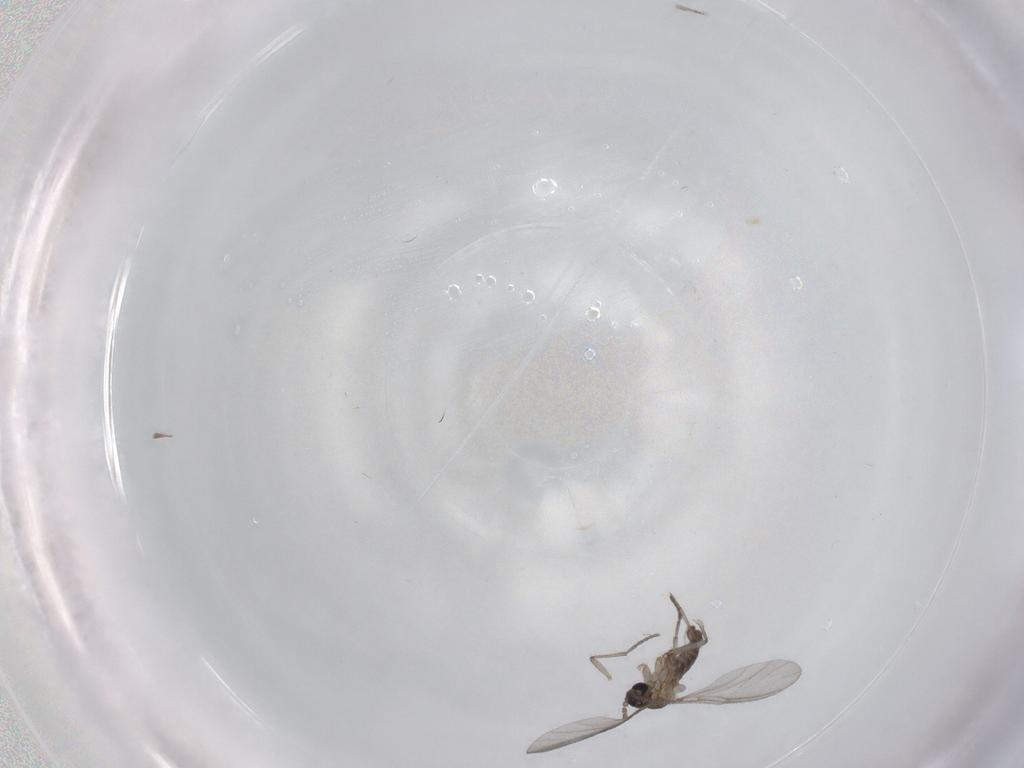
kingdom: Animalia
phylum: Arthropoda
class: Insecta
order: Diptera
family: Sciaridae
